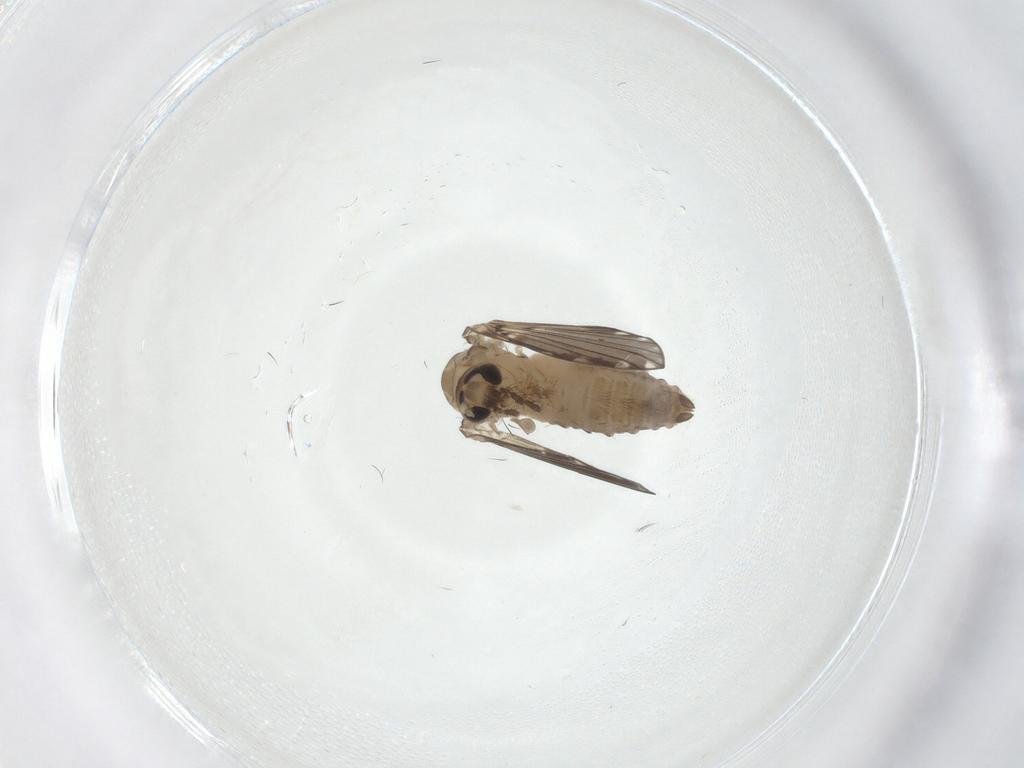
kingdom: Animalia
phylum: Arthropoda
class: Insecta
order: Diptera
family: Psychodidae
